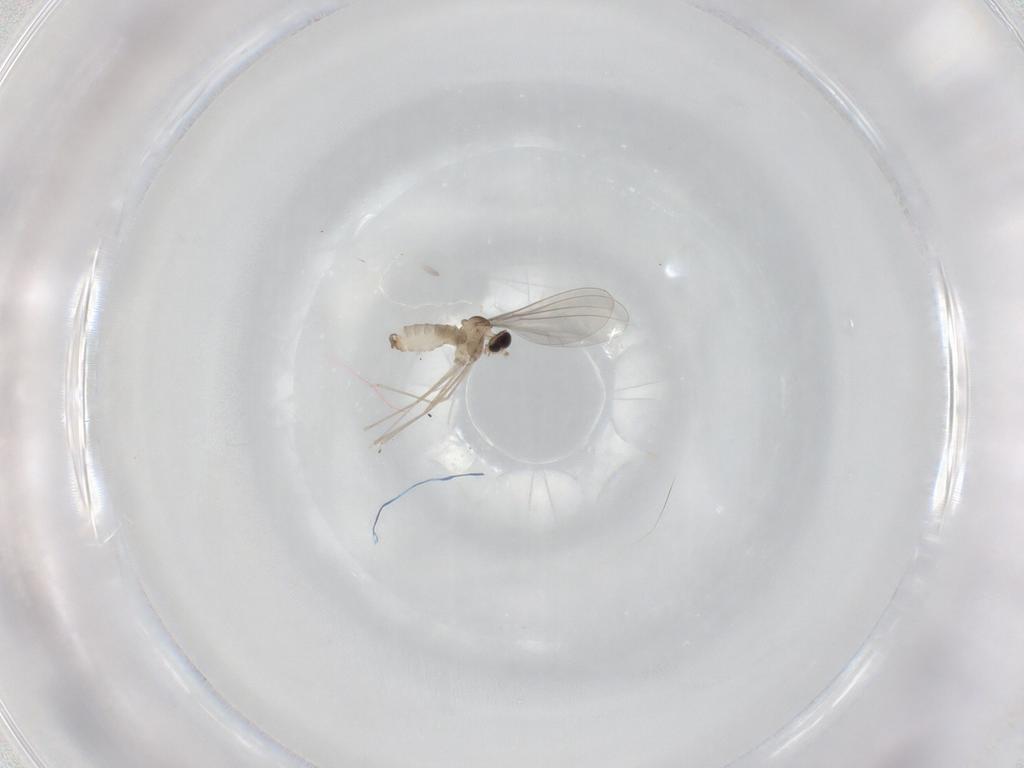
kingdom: Animalia
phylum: Arthropoda
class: Insecta
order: Diptera
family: Cecidomyiidae
